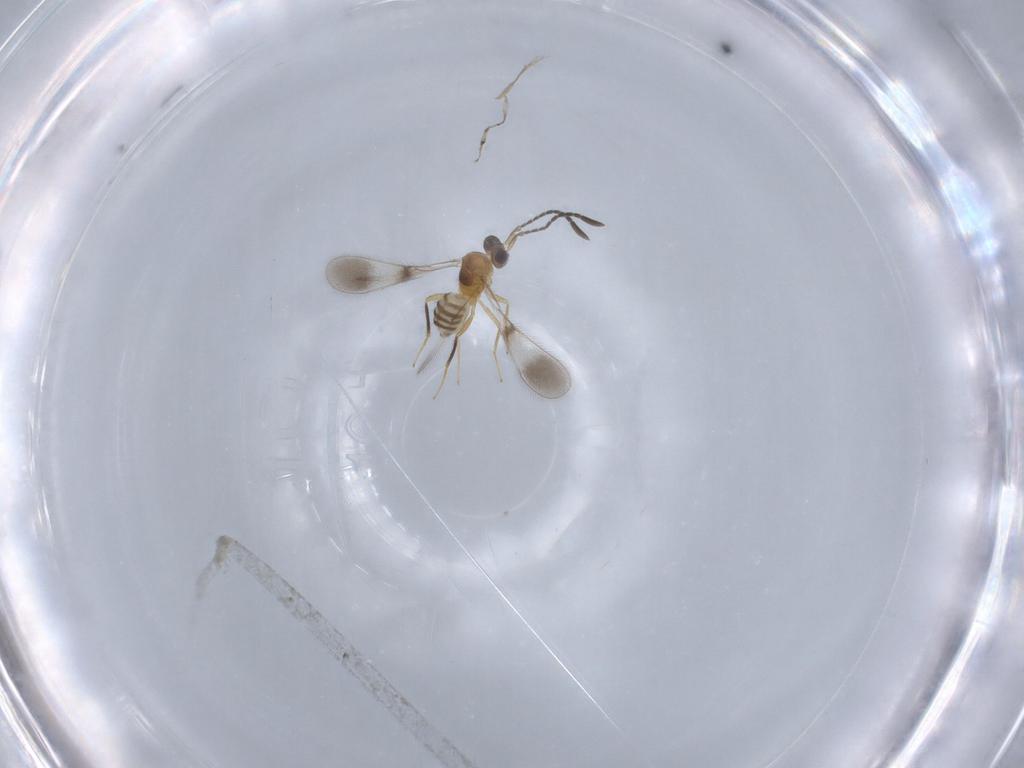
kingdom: Animalia
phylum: Arthropoda
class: Insecta
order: Hymenoptera
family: Mymaridae
